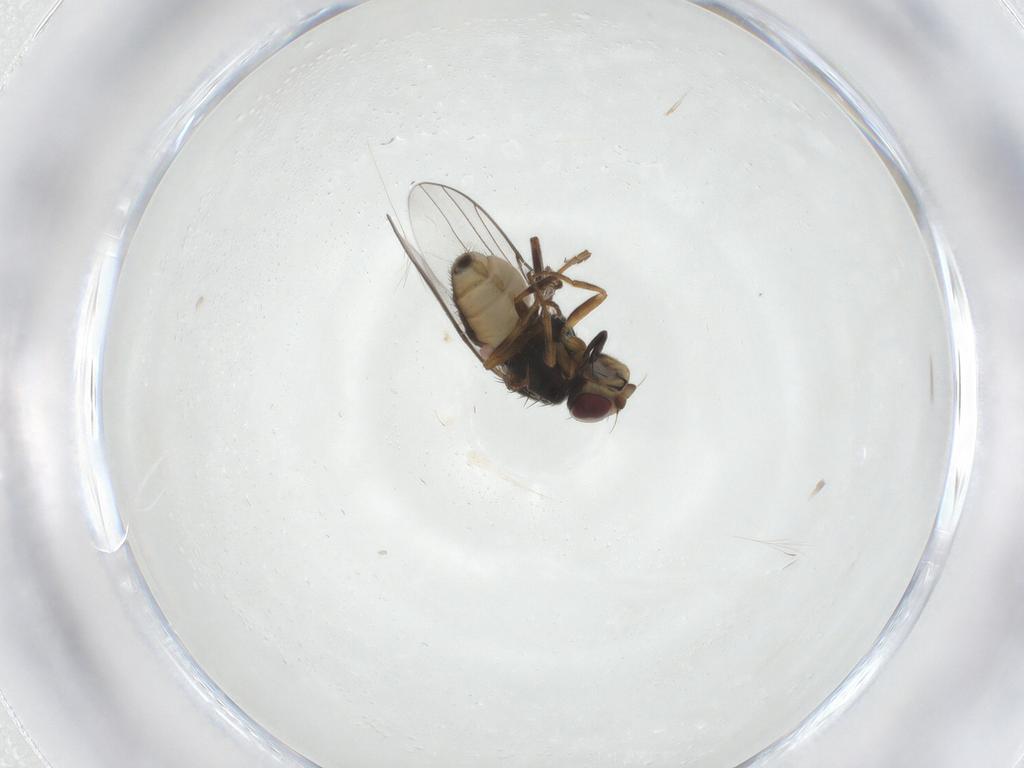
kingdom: Animalia
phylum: Arthropoda
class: Insecta
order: Diptera
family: Chloropidae
